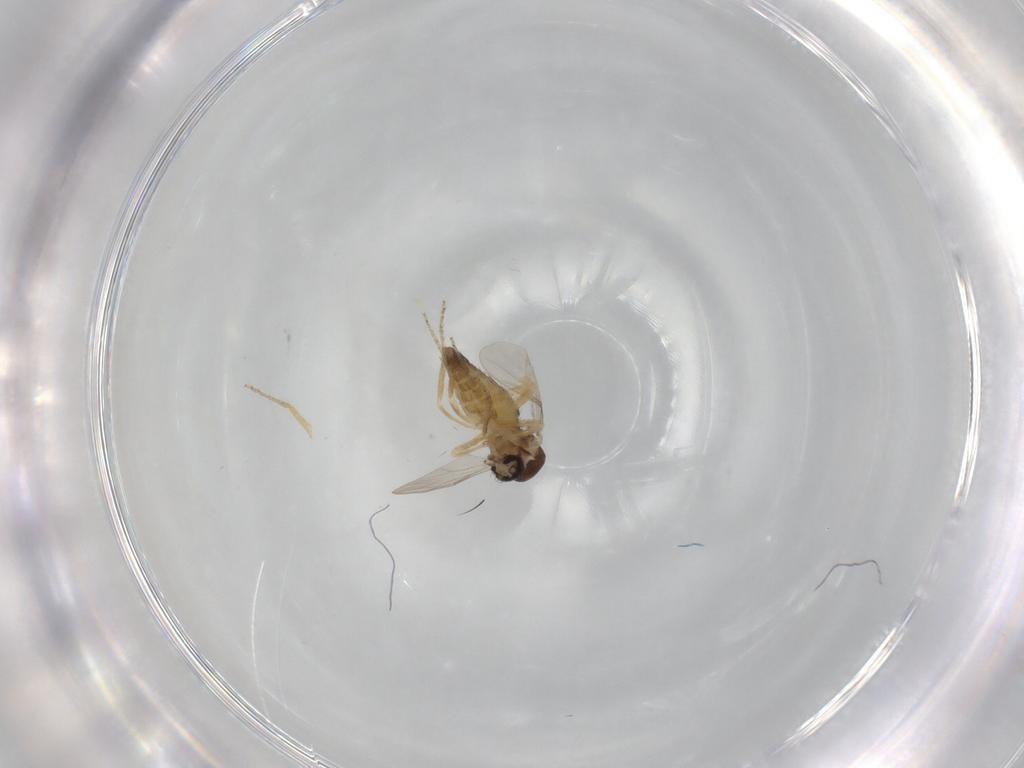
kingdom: Animalia
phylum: Arthropoda
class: Insecta
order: Diptera
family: Ceratopogonidae
